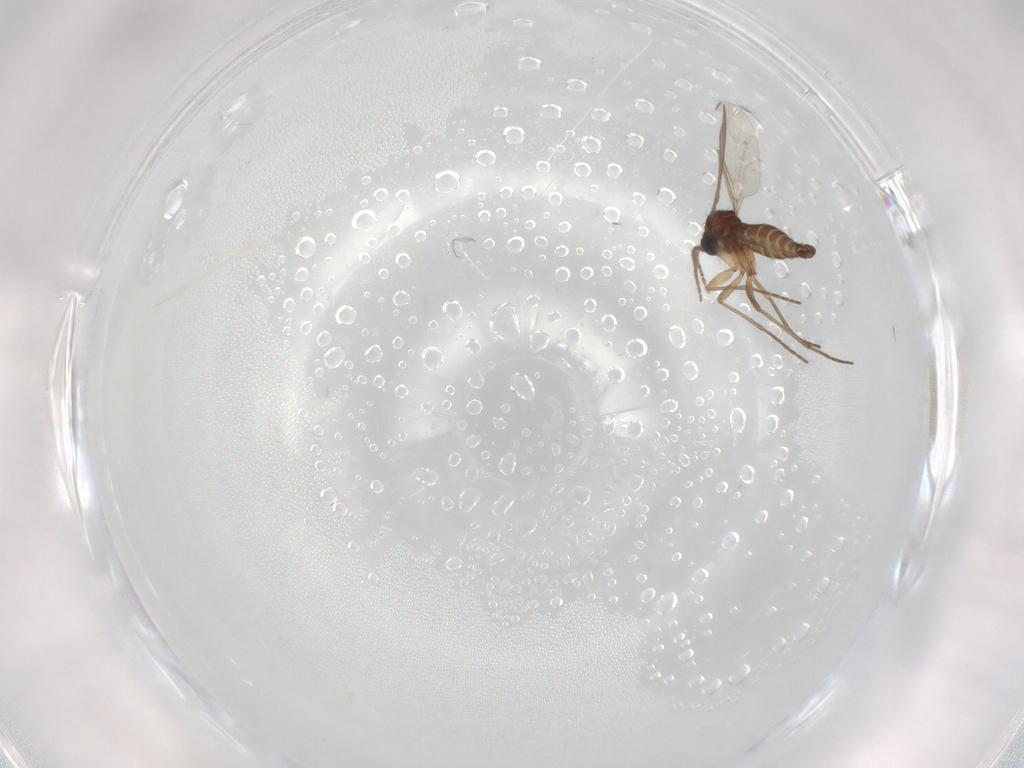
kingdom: Animalia
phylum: Arthropoda
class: Insecta
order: Diptera
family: Sciaridae
